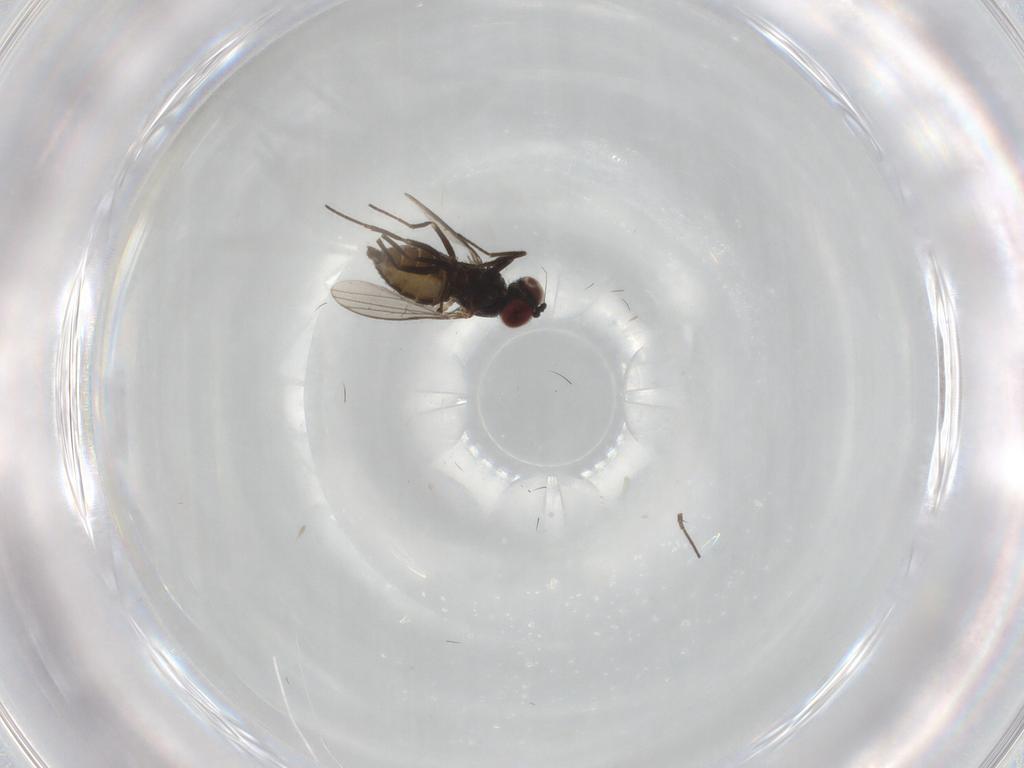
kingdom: Animalia
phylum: Arthropoda
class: Insecta
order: Diptera
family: Dolichopodidae
